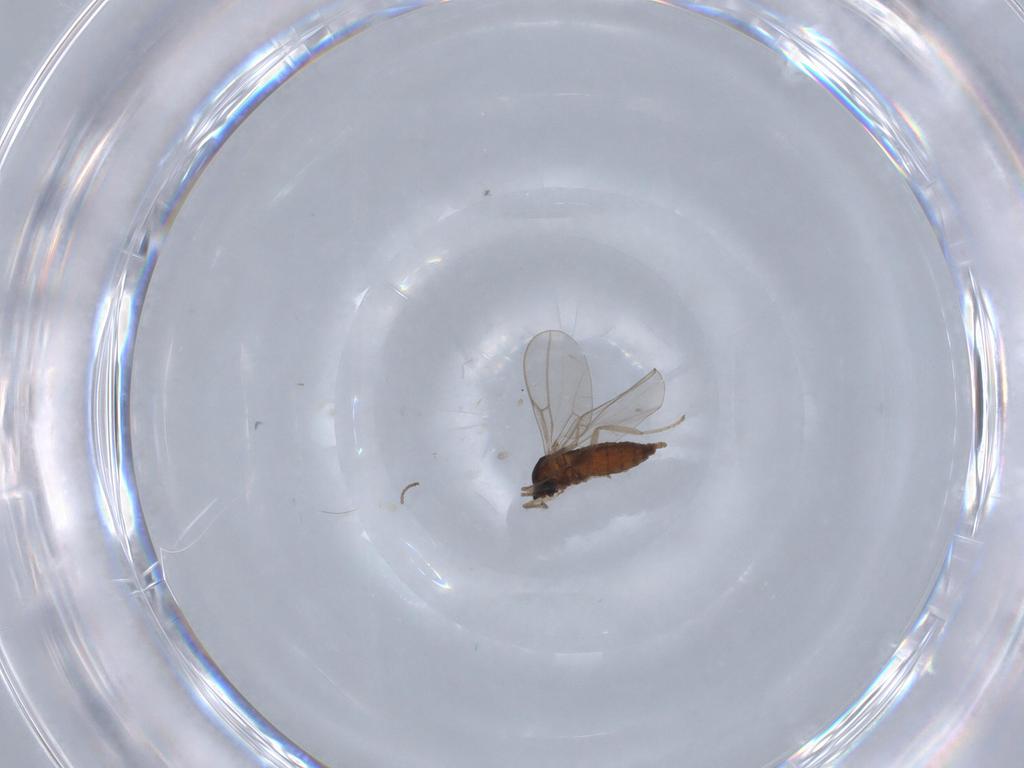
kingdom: Animalia
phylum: Arthropoda
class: Insecta
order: Diptera
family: Cecidomyiidae
